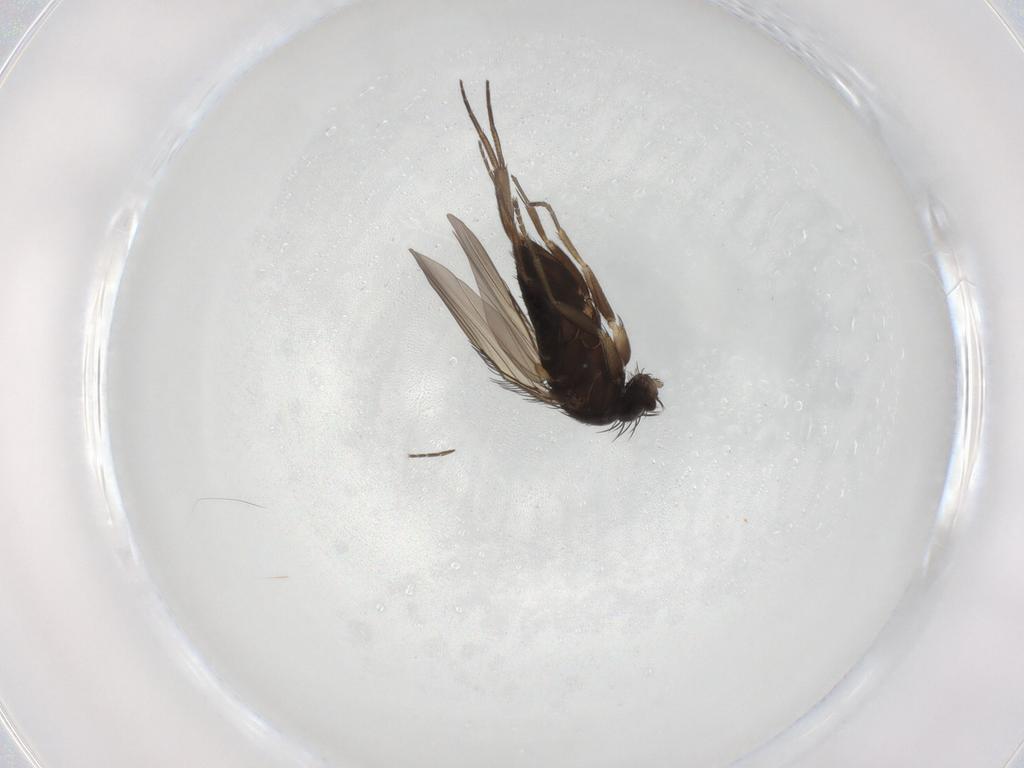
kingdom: Animalia
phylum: Arthropoda
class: Insecta
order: Diptera
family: Phoridae
